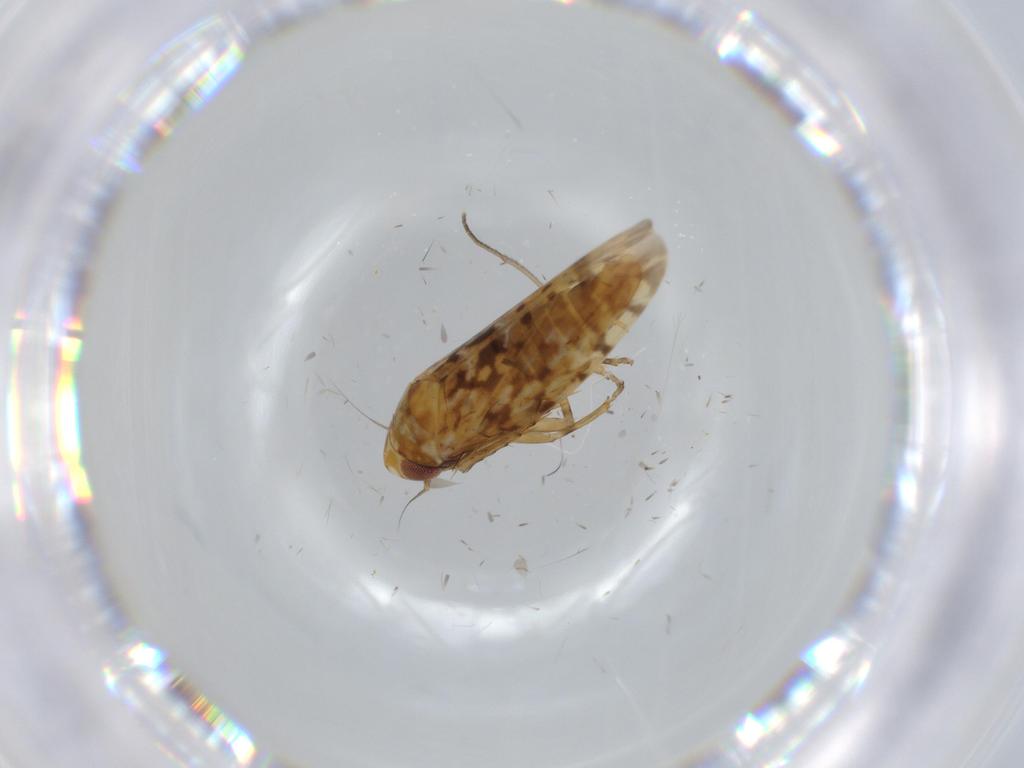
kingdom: Animalia
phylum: Arthropoda
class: Insecta
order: Hemiptera
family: Cicadellidae
